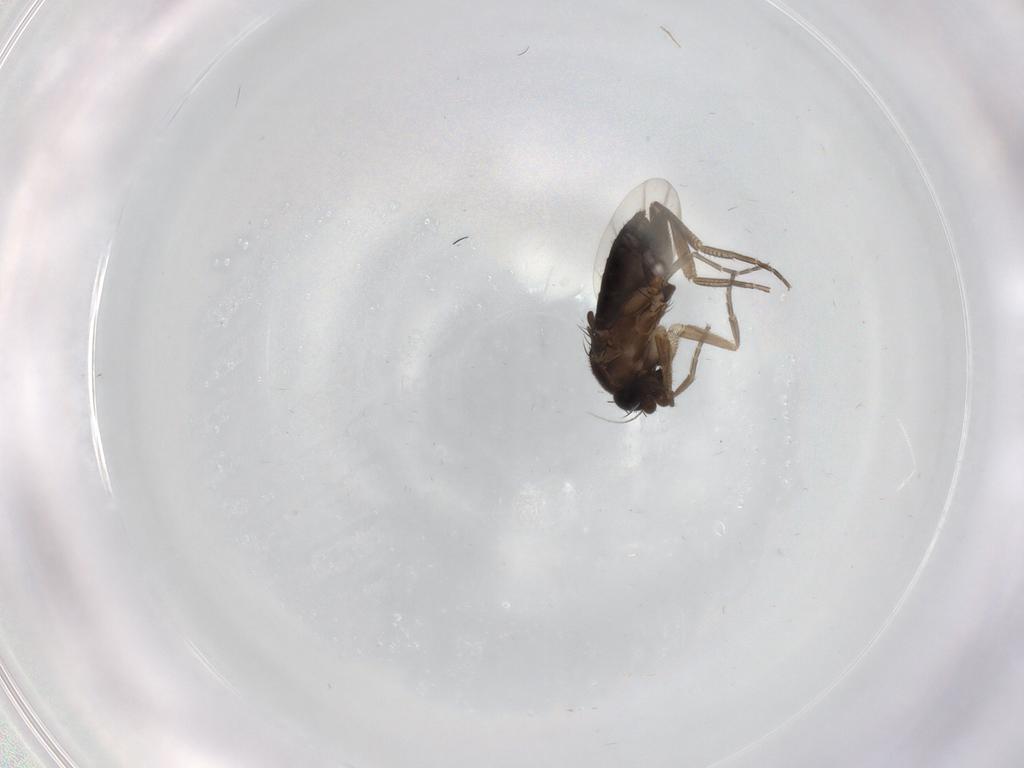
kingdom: Animalia
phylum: Arthropoda
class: Insecta
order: Diptera
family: Phoridae
